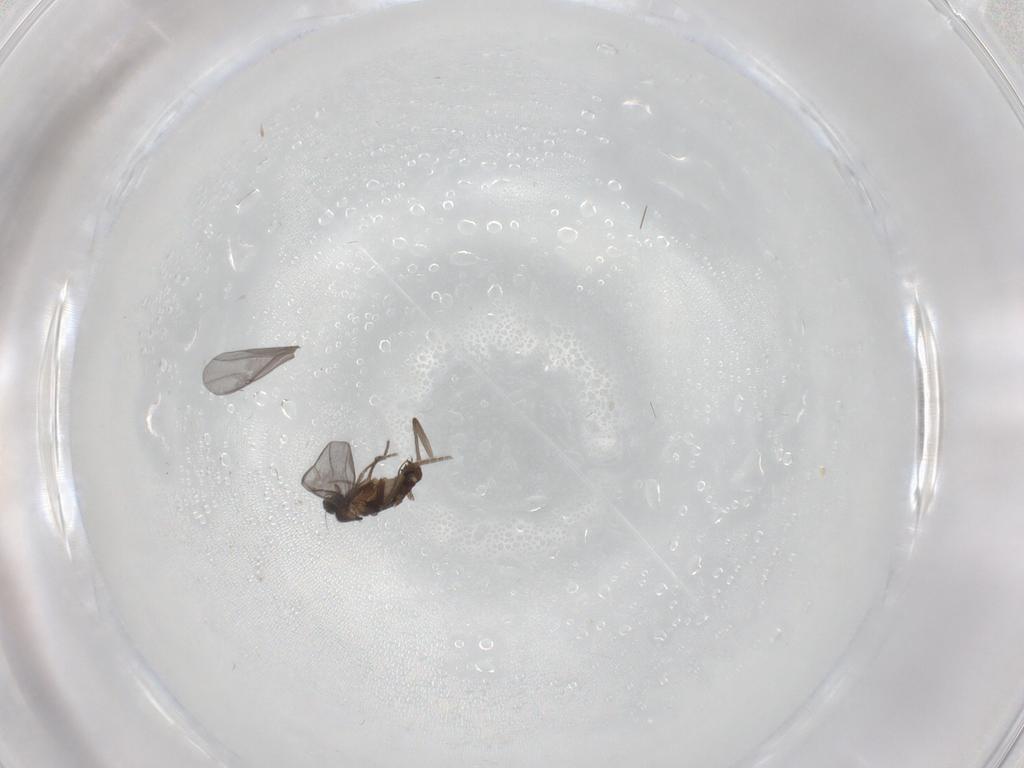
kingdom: Animalia
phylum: Arthropoda
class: Insecta
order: Diptera
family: Phoridae
